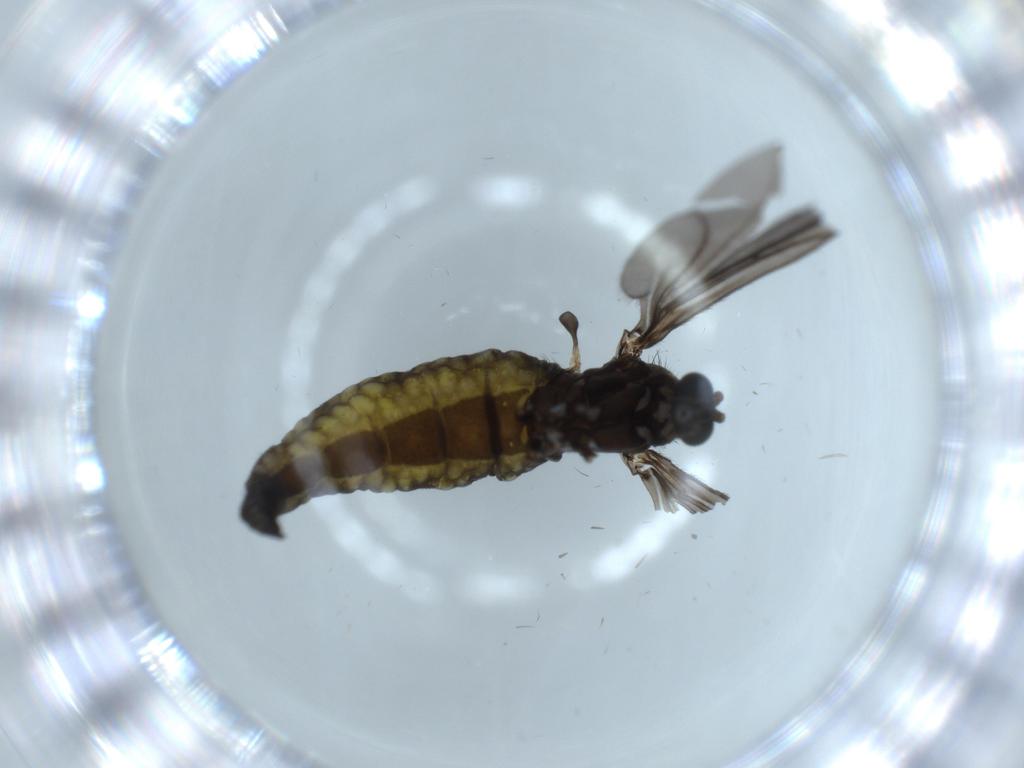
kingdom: Animalia
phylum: Arthropoda
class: Insecta
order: Diptera
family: Sciaridae
